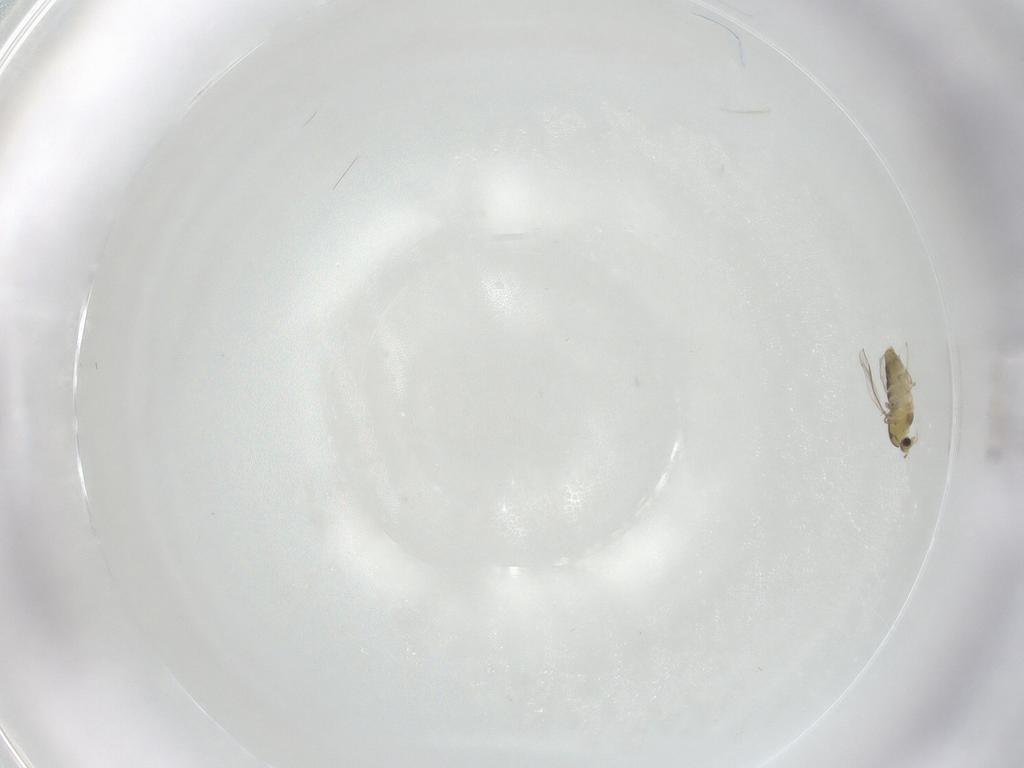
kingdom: Animalia
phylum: Arthropoda
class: Insecta
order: Diptera
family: Chironomidae
